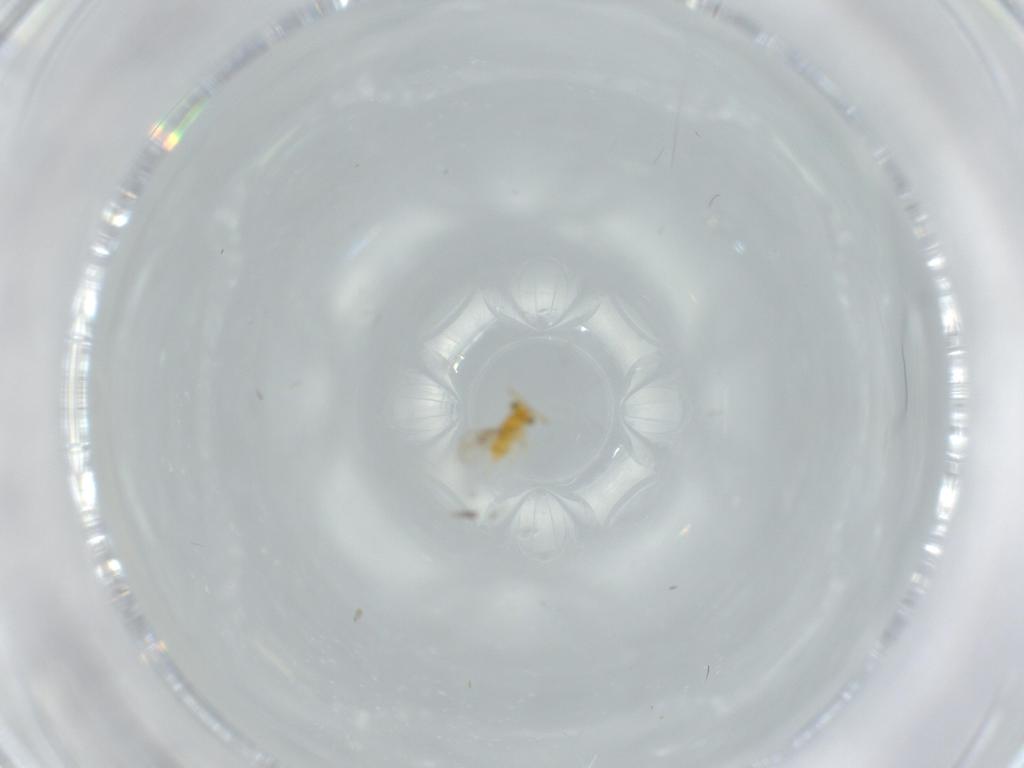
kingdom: Animalia
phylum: Arthropoda
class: Insecta
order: Hymenoptera
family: Aphelinidae
